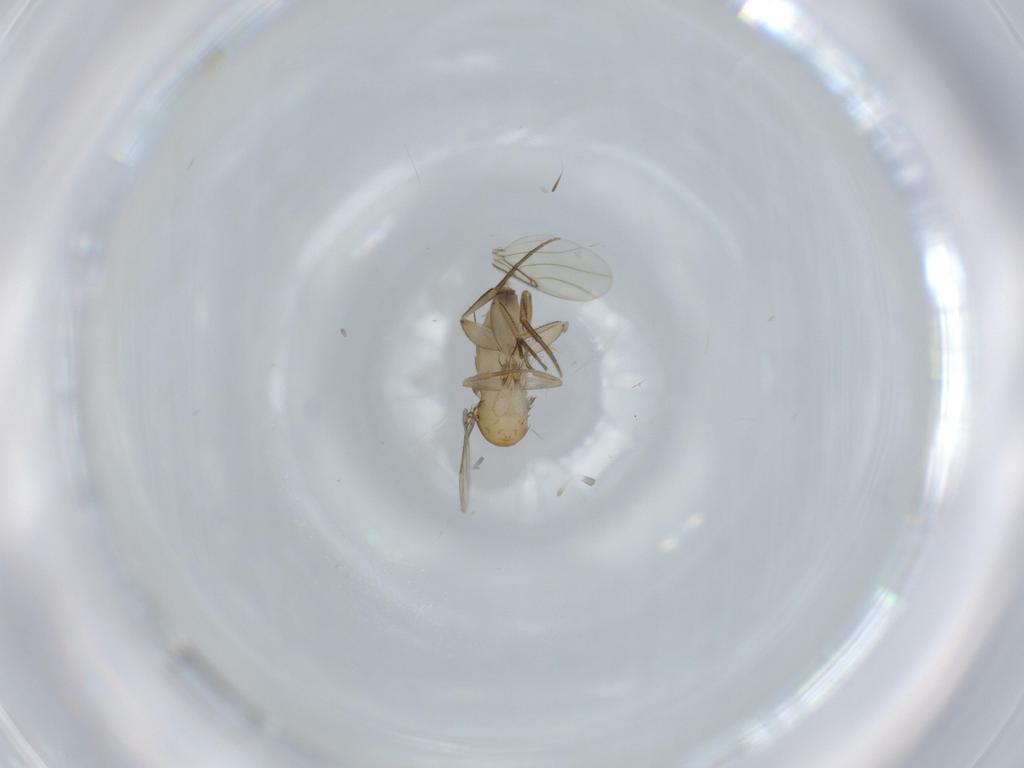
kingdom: Animalia
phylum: Arthropoda
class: Insecta
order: Diptera
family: Phoridae
